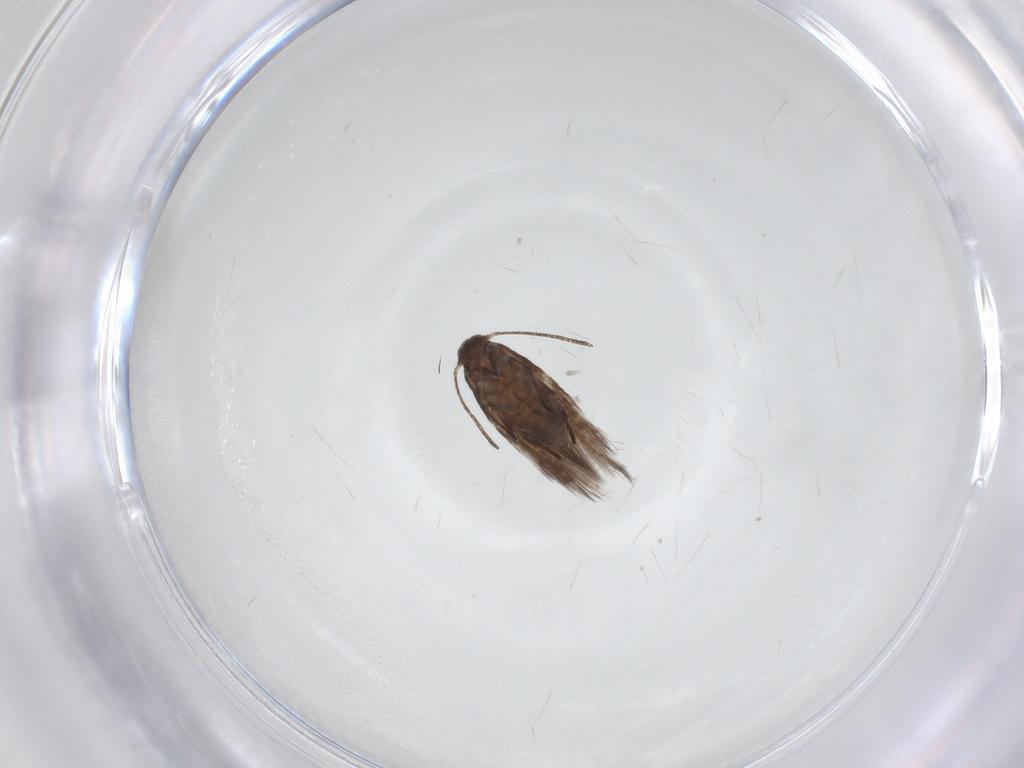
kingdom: Animalia
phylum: Arthropoda
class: Insecta
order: Lepidoptera
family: Lyonetiidae
